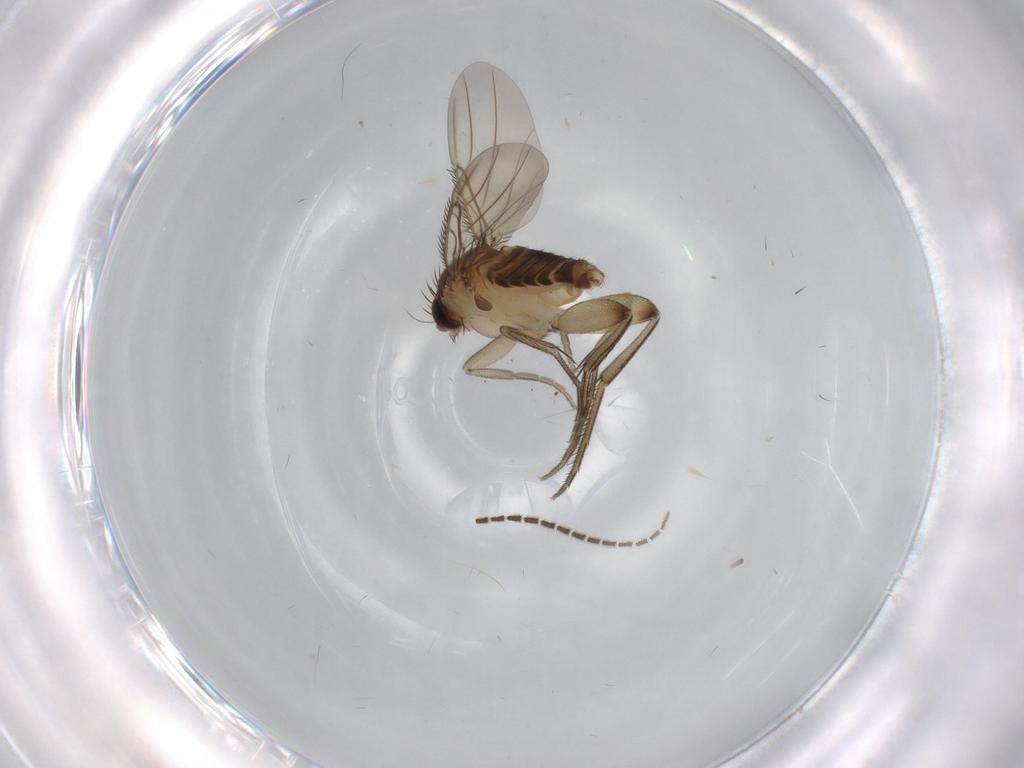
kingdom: Animalia
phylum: Arthropoda
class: Insecta
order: Diptera
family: Phoridae
